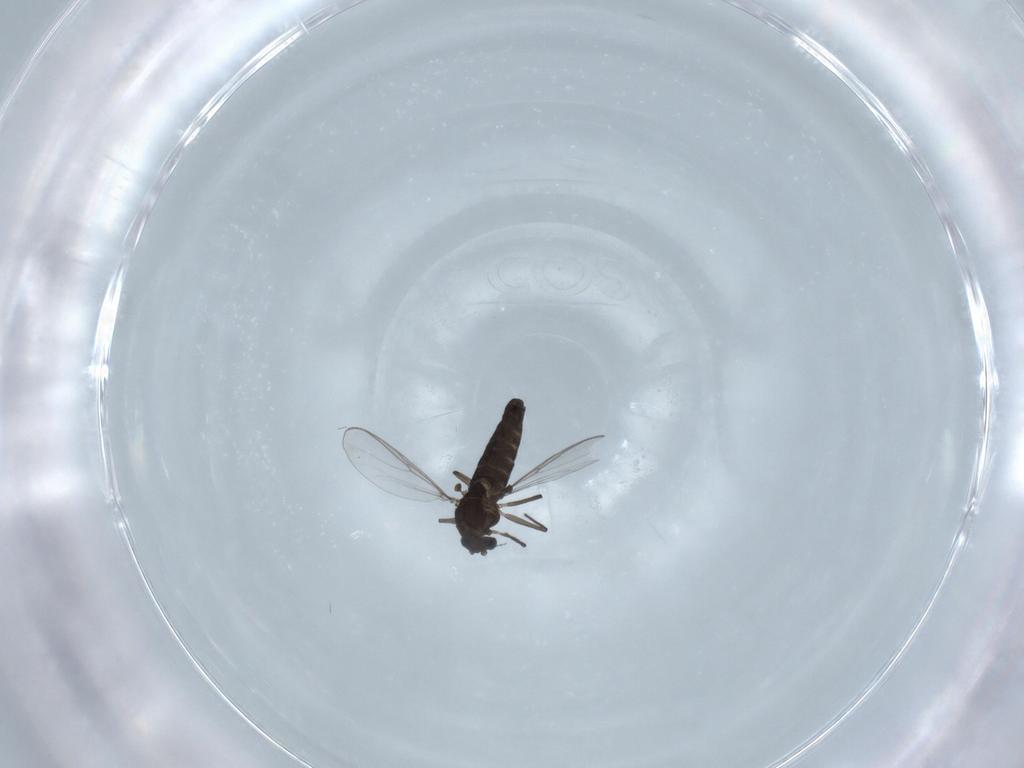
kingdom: Animalia
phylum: Arthropoda
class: Insecta
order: Diptera
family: Chironomidae
